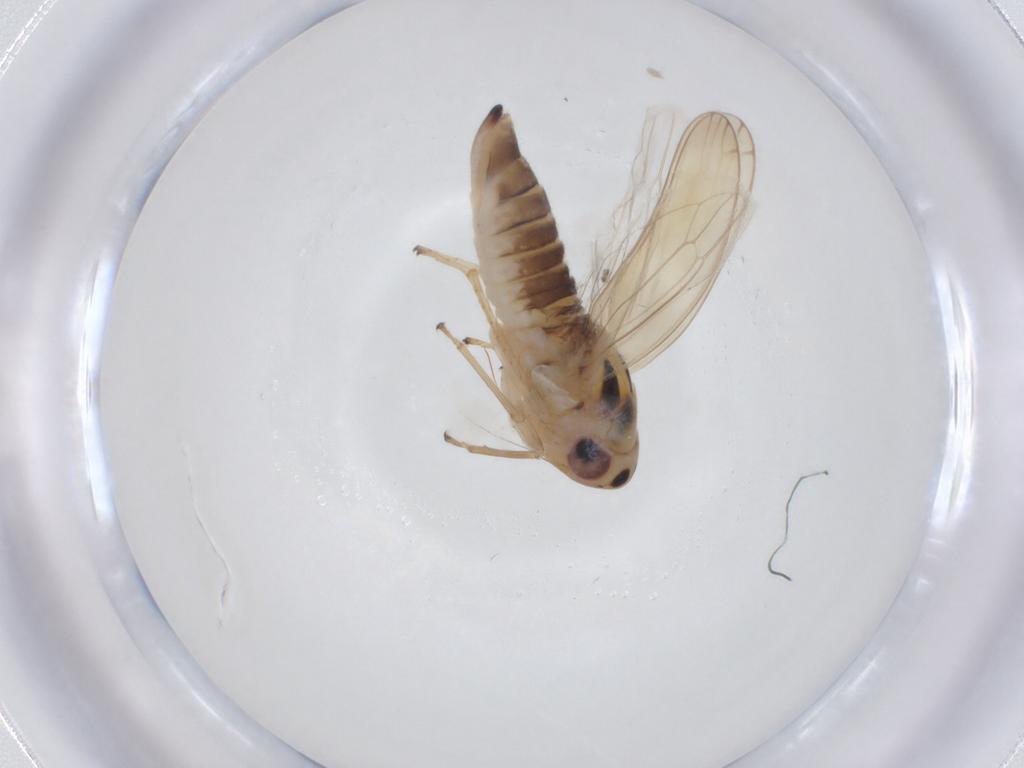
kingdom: Animalia
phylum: Arthropoda
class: Insecta
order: Hemiptera
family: Cicadellidae
